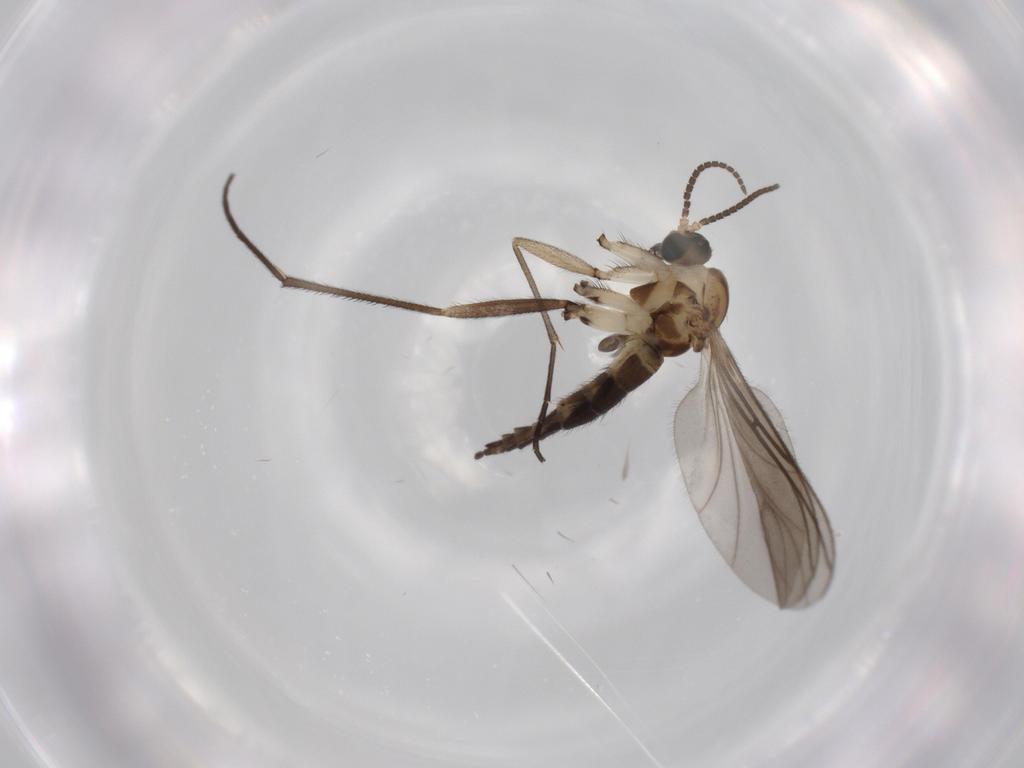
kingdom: Animalia
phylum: Arthropoda
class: Insecta
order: Diptera
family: Sciaridae
